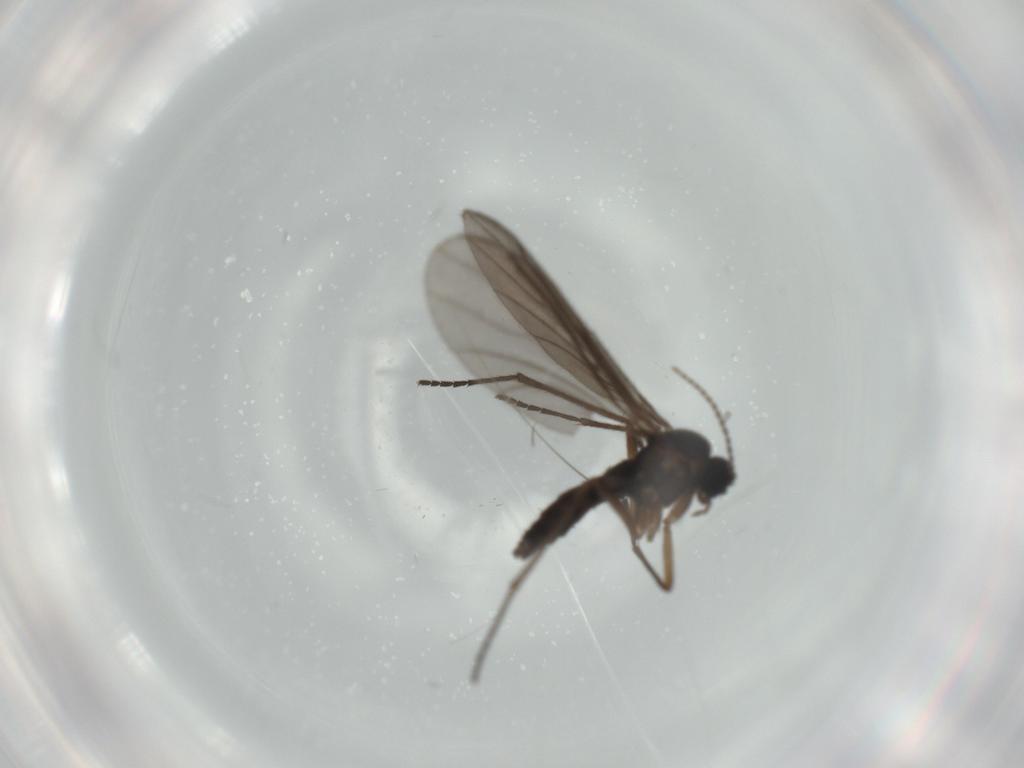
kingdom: Animalia
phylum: Arthropoda
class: Insecta
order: Diptera
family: Sciaridae
